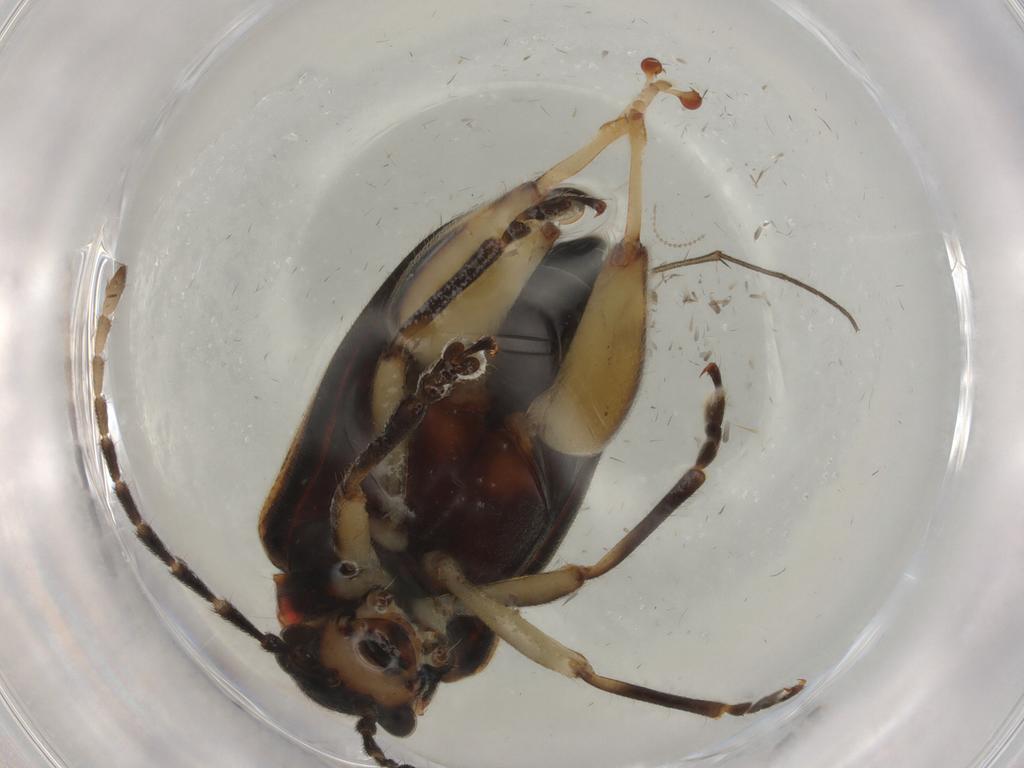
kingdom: Animalia
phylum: Arthropoda
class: Insecta
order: Coleoptera
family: Chrysomelidae
